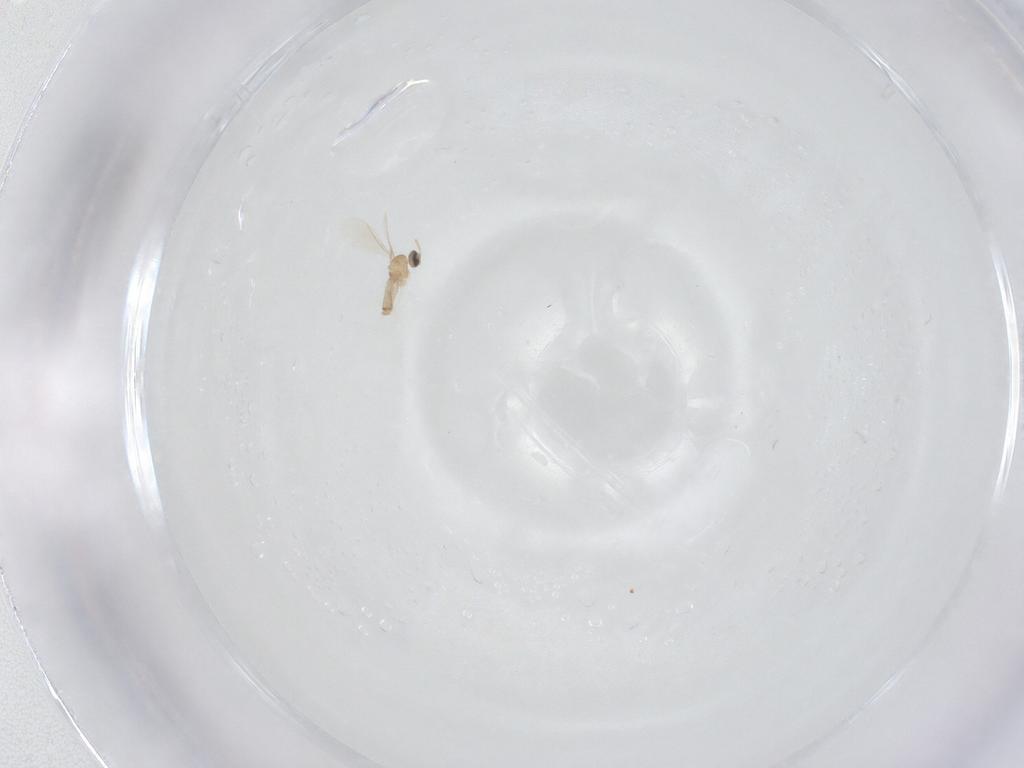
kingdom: Animalia
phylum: Arthropoda
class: Insecta
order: Diptera
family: Cecidomyiidae
